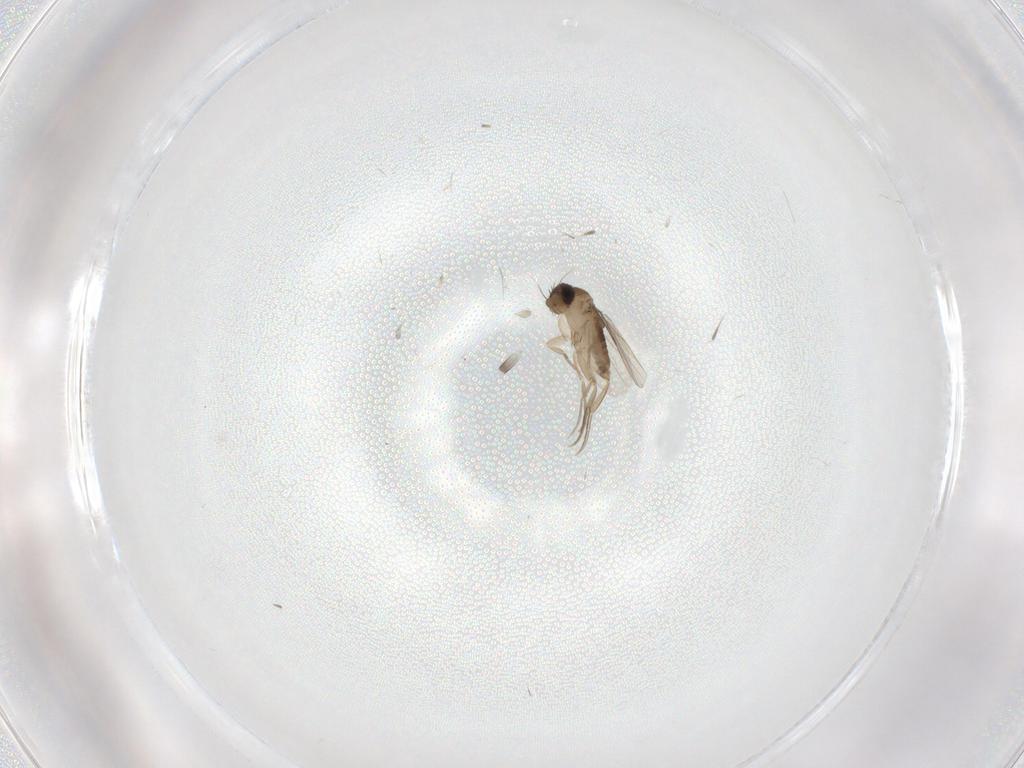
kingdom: Animalia
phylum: Arthropoda
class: Insecta
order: Diptera
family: Phoridae
